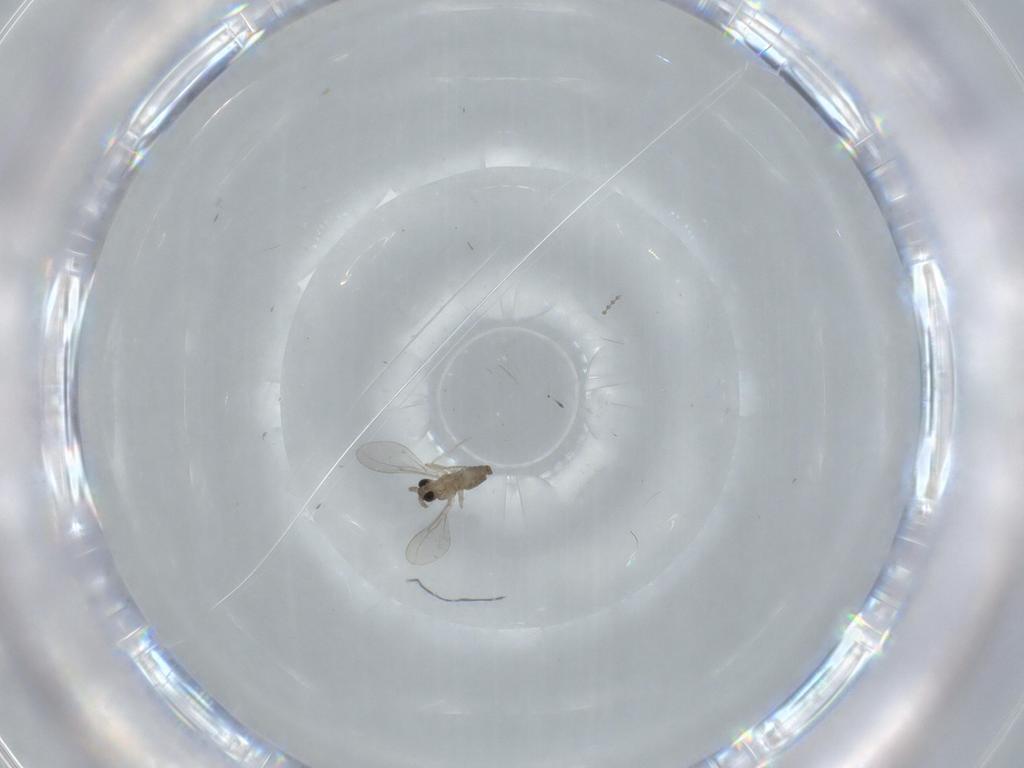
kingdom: Animalia
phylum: Arthropoda
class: Insecta
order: Diptera
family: Cecidomyiidae
